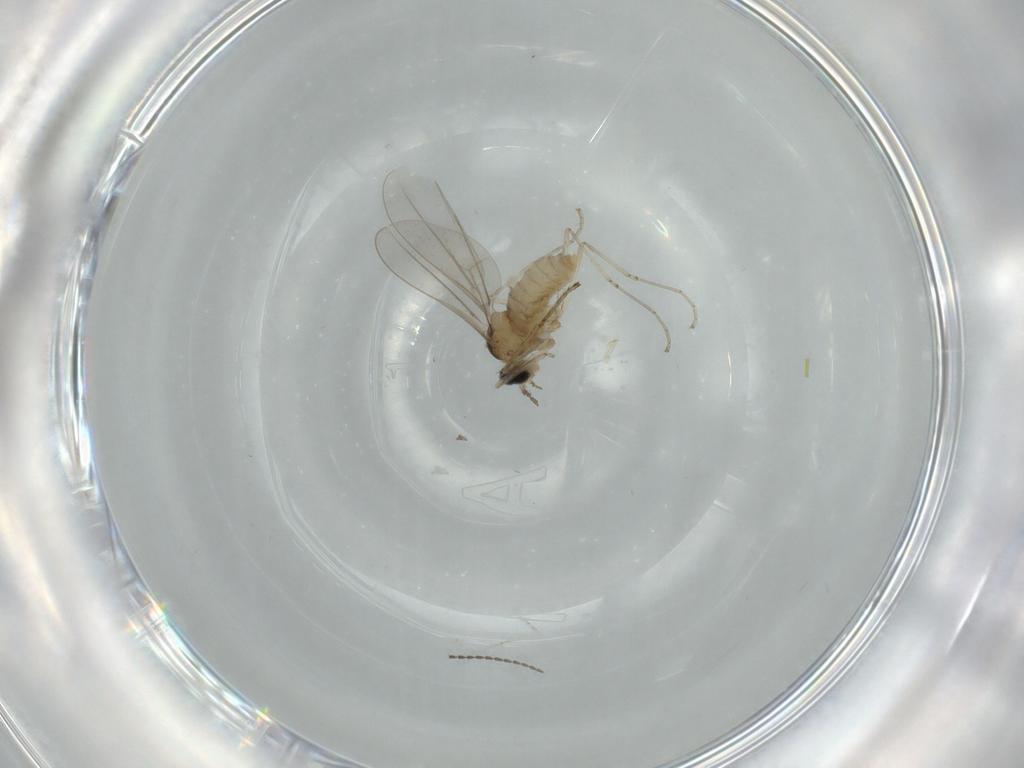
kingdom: Animalia
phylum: Arthropoda
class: Insecta
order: Diptera
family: Cecidomyiidae
